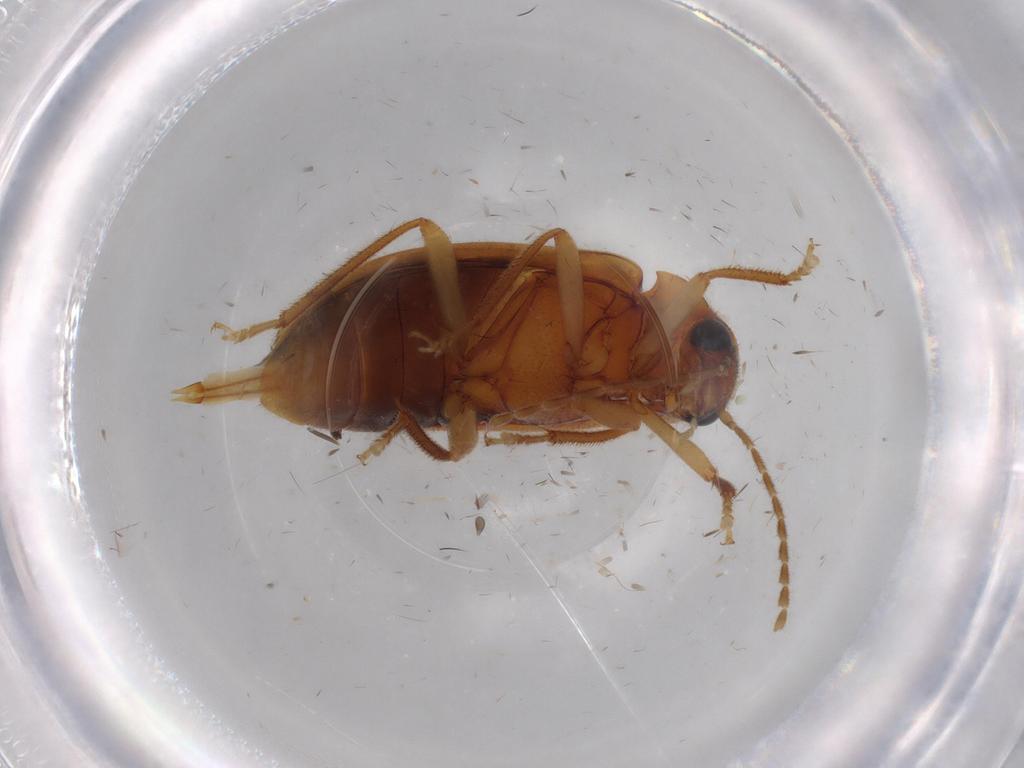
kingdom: Animalia
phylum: Arthropoda
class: Insecta
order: Coleoptera
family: Ptilodactylidae
